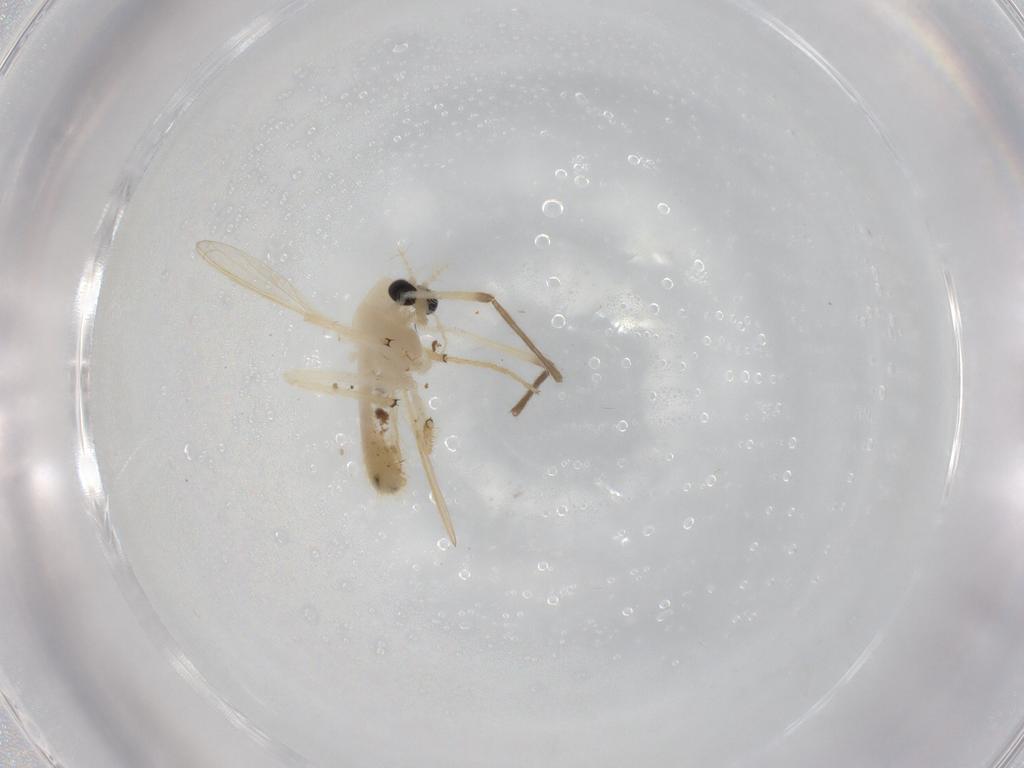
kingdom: Animalia
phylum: Arthropoda
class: Insecta
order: Diptera
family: Chironomidae
